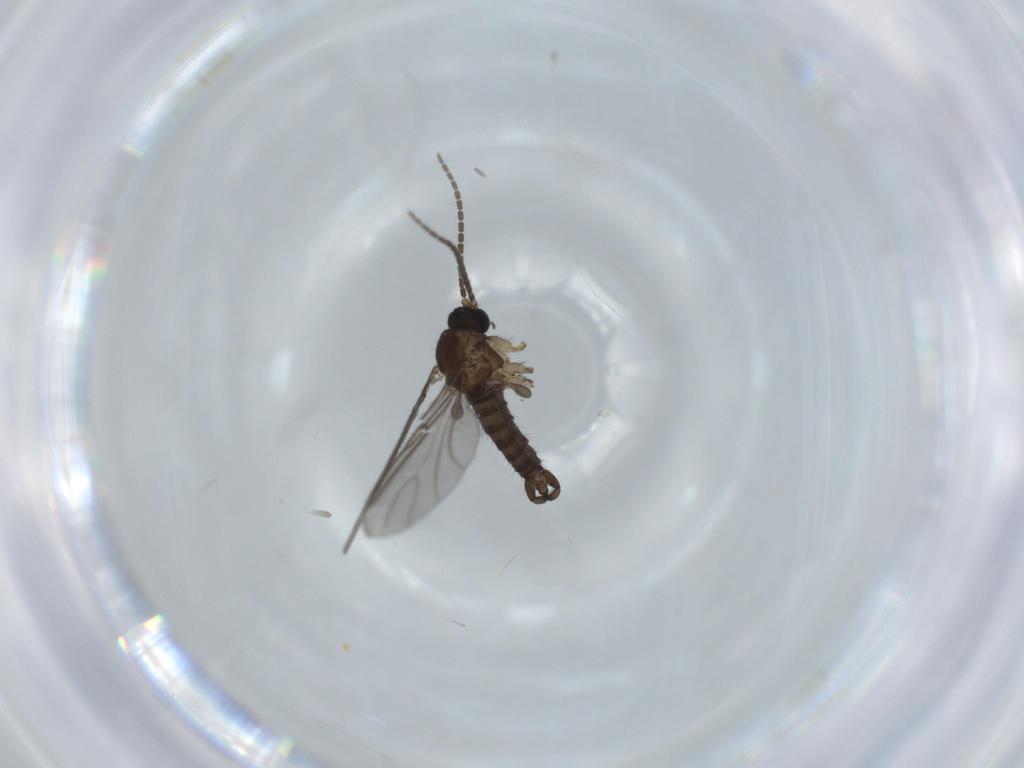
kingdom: Animalia
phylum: Arthropoda
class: Insecta
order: Diptera
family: Sciaridae
